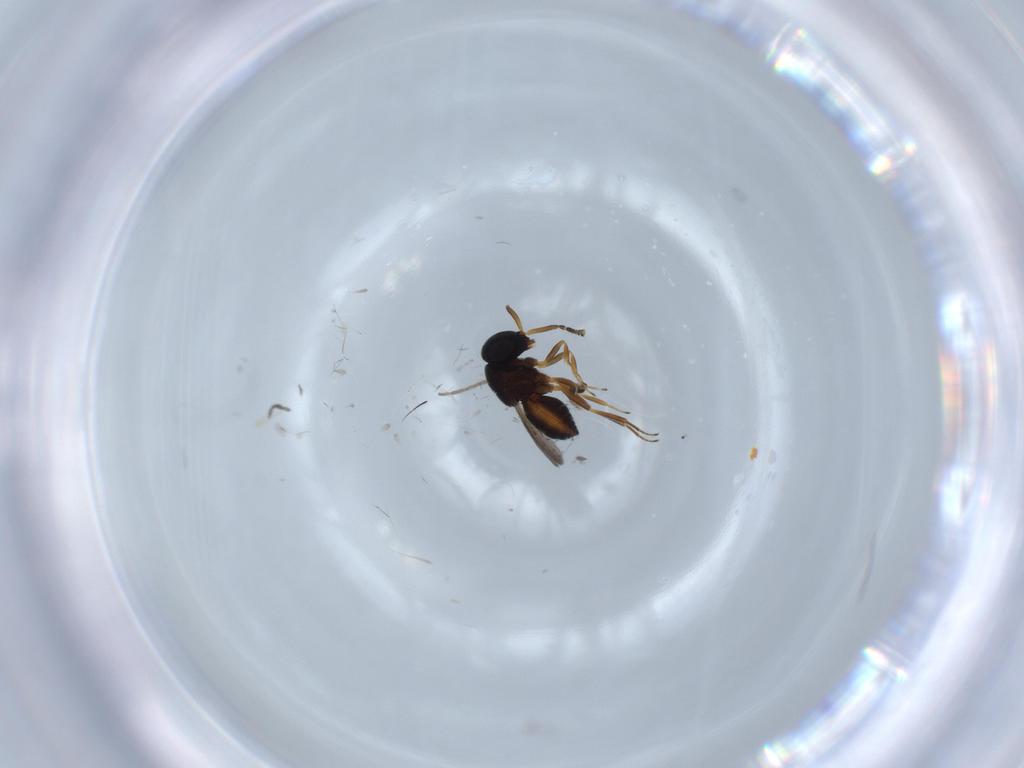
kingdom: Animalia
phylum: Arthropoda
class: Insecta
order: Hymenoptera
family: Scelionidae
